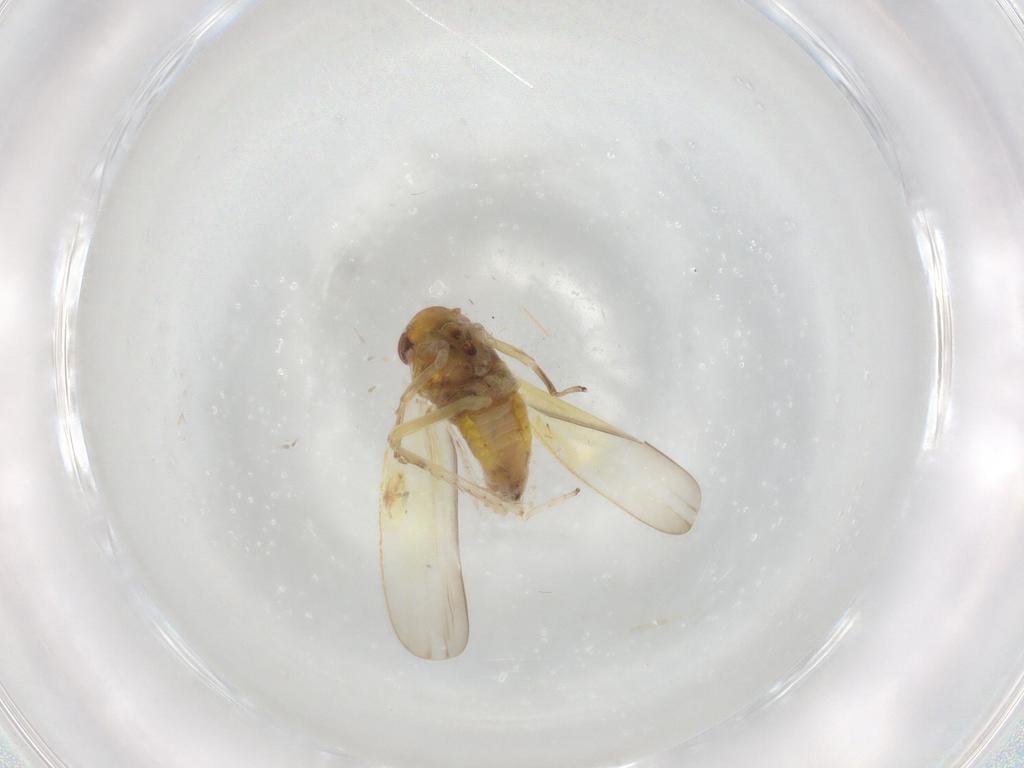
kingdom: Animalia
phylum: Arthropoda
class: Insecta
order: Hemiptera
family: Cicadellidae
